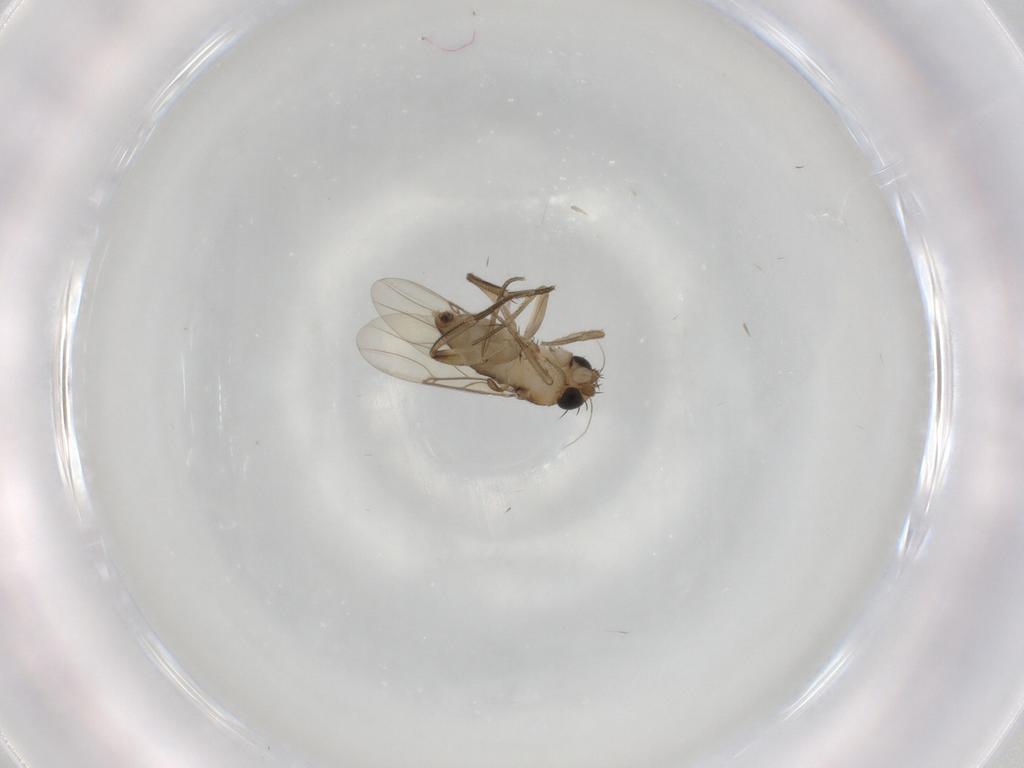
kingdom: Animalia
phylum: Arthropoda
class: Insecta
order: Diptera
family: Phoridae
